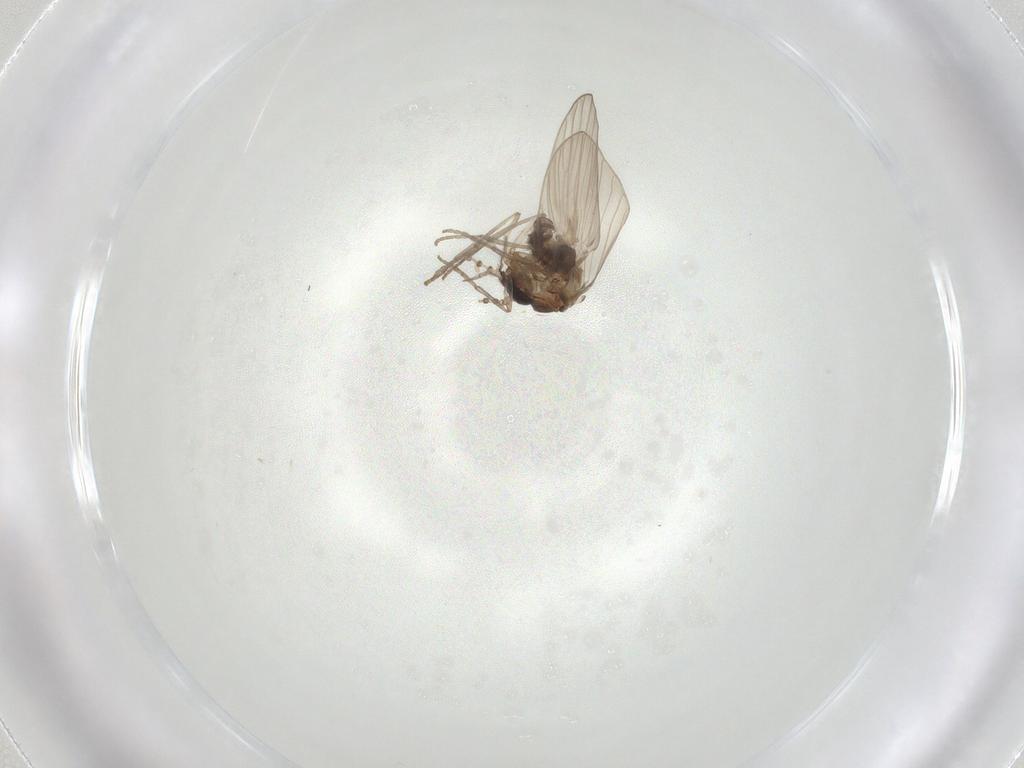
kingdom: Animalia
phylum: Arthropoda
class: Insecta
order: Diptera
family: Psychodidae
